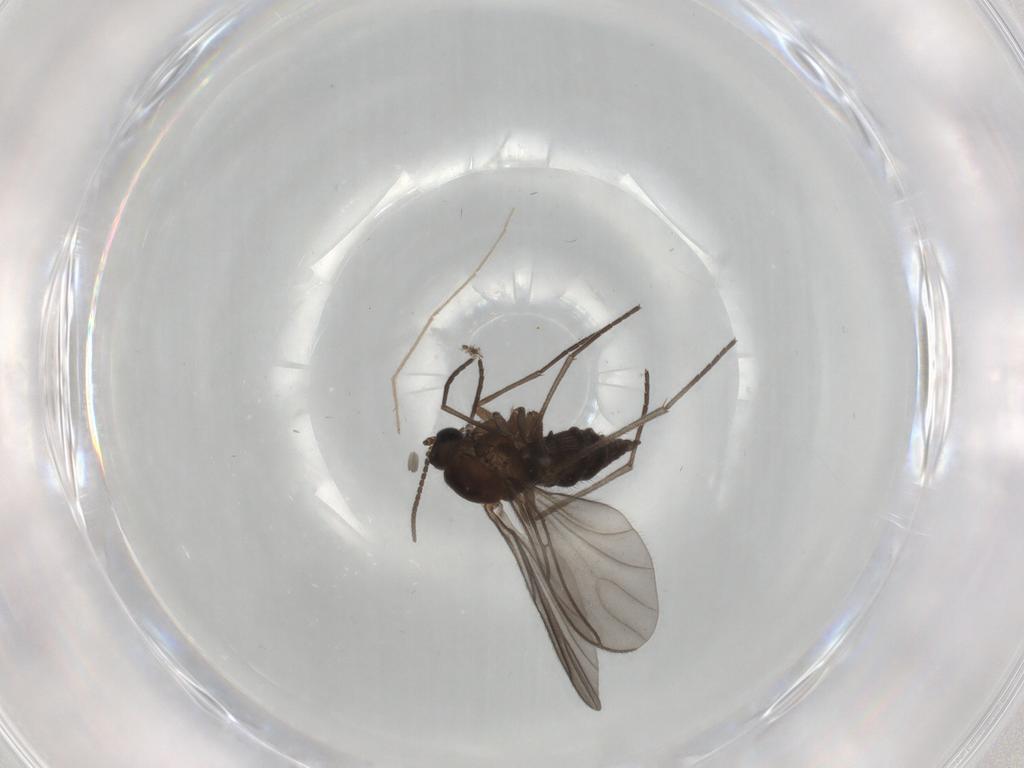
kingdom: Animalia
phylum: Arthropoda
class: Insecta
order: Diptera
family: Sciaridae
